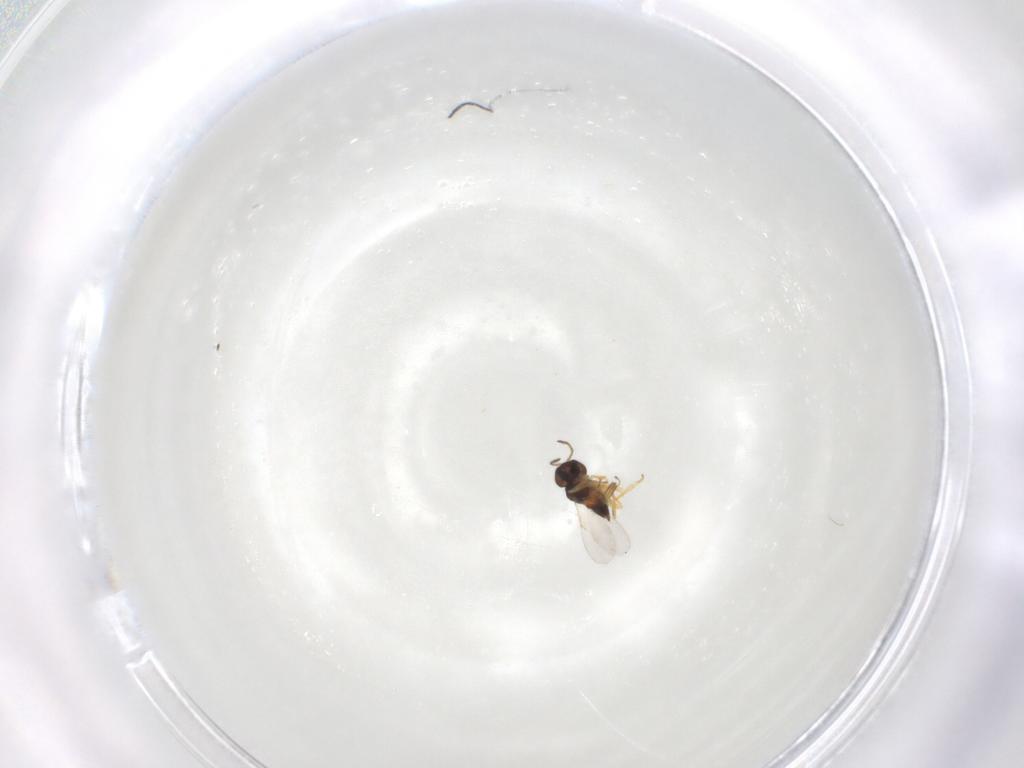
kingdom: Animalia
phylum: Arthropoda
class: Insecta
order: Hymenoptera
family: Encyrtidae
